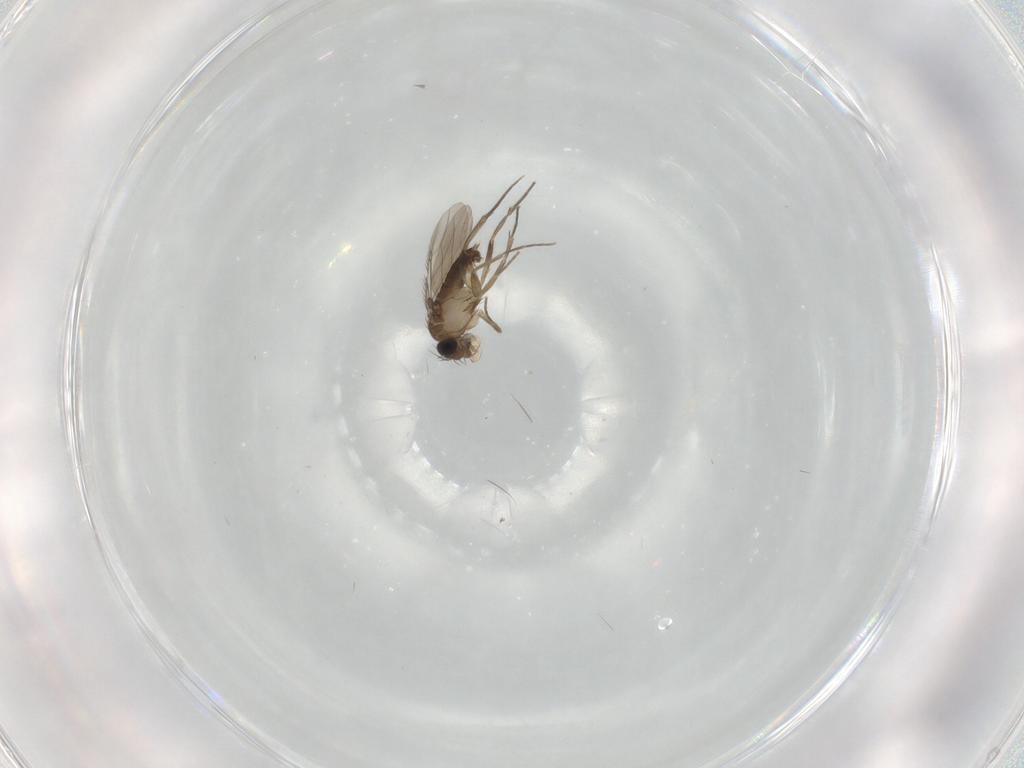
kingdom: Animalia
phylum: Arthropoda
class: Insecta
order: Diptera
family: Phoridae
